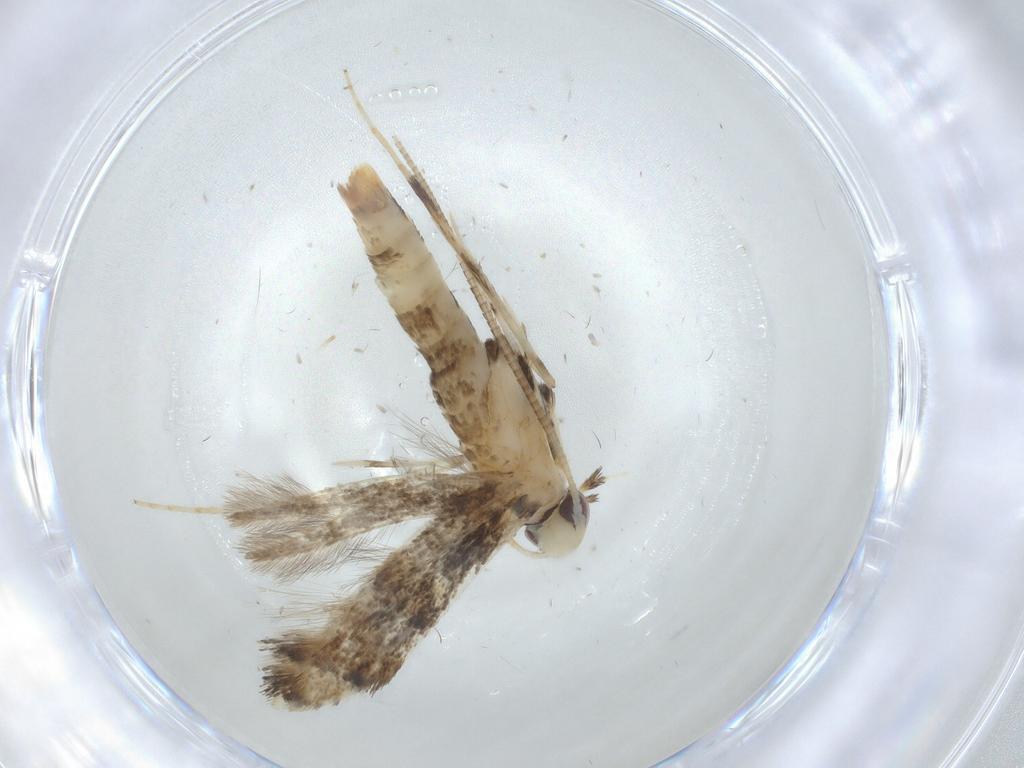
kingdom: Animalia
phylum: Arthropoda
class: Insecta
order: Lepidoptera
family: Gracillariidae
